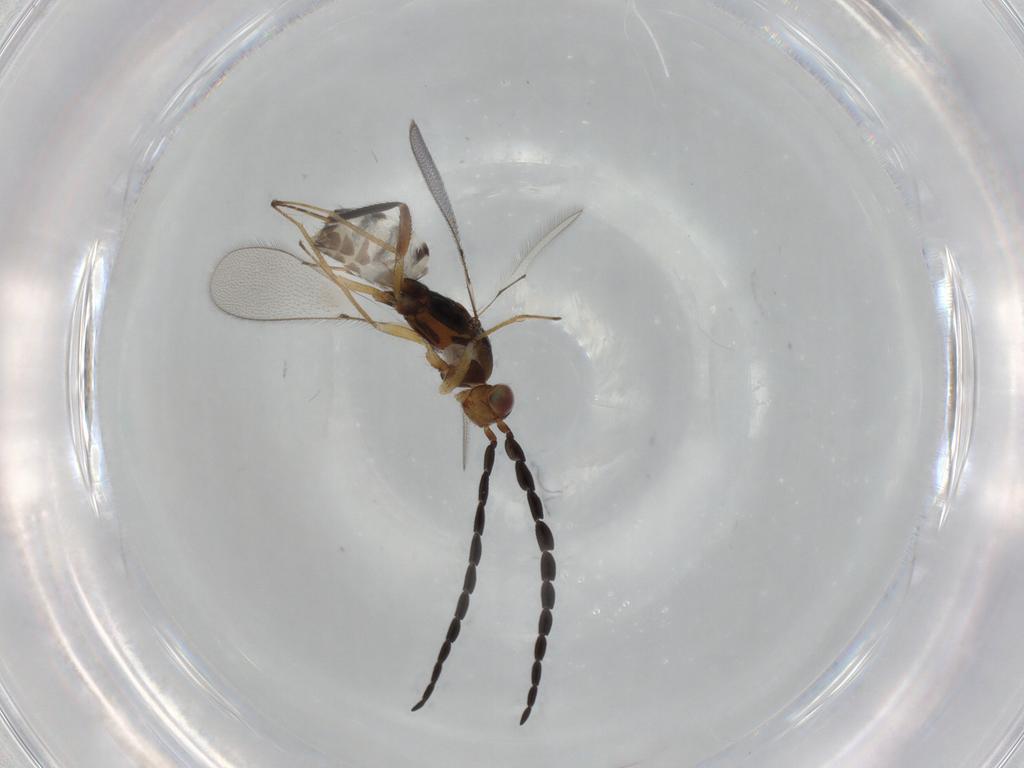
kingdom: Animalia
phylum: Arthropoda
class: Insecta
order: Hymenoptera
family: Mymaridae
